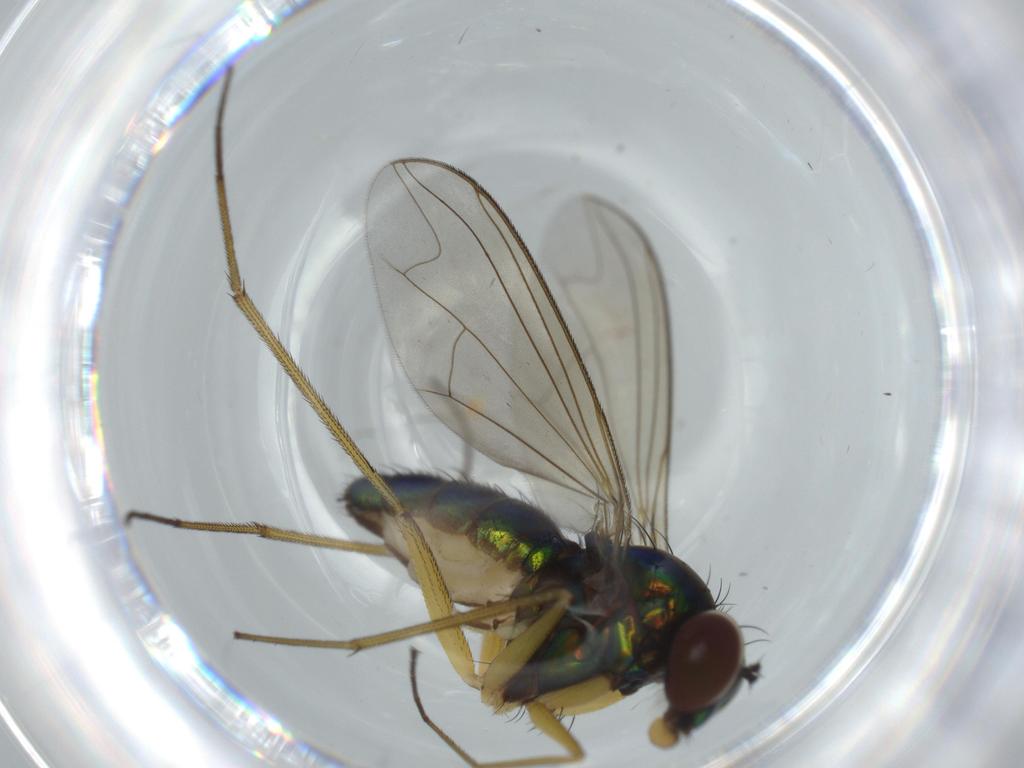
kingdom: Animalia
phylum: Arthropoda
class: Insecta
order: Diptera
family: Dolichopodidae
